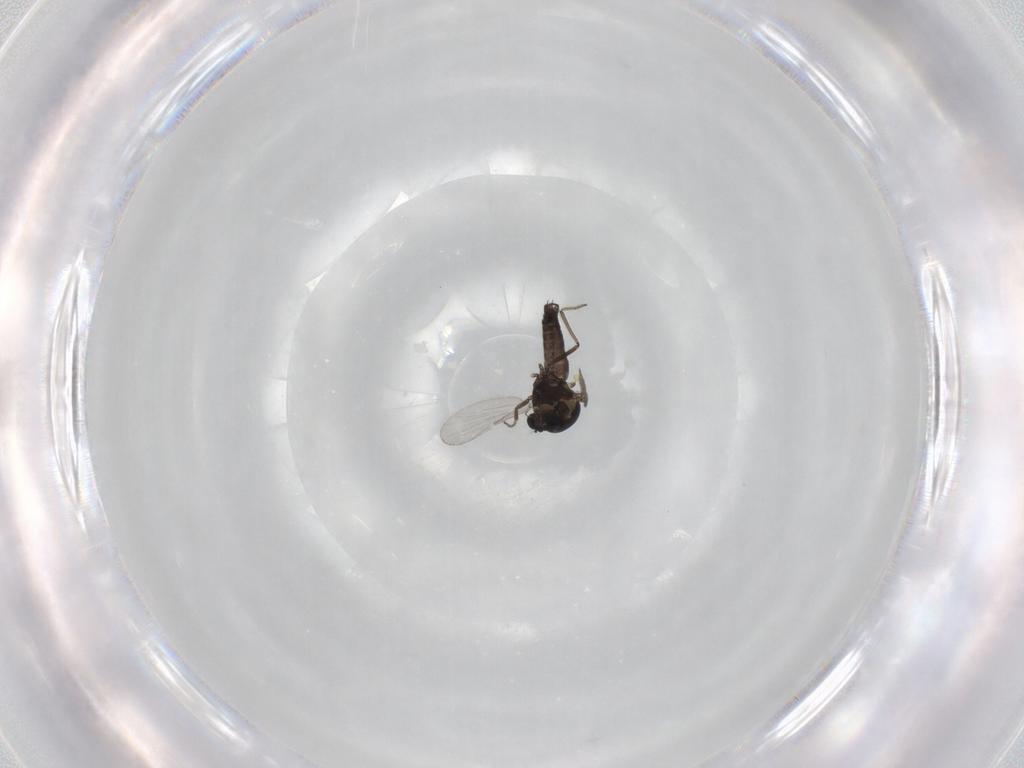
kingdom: Animalia
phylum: Arthropoda
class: Insecta
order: Diptera
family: Ceratopogonidae
